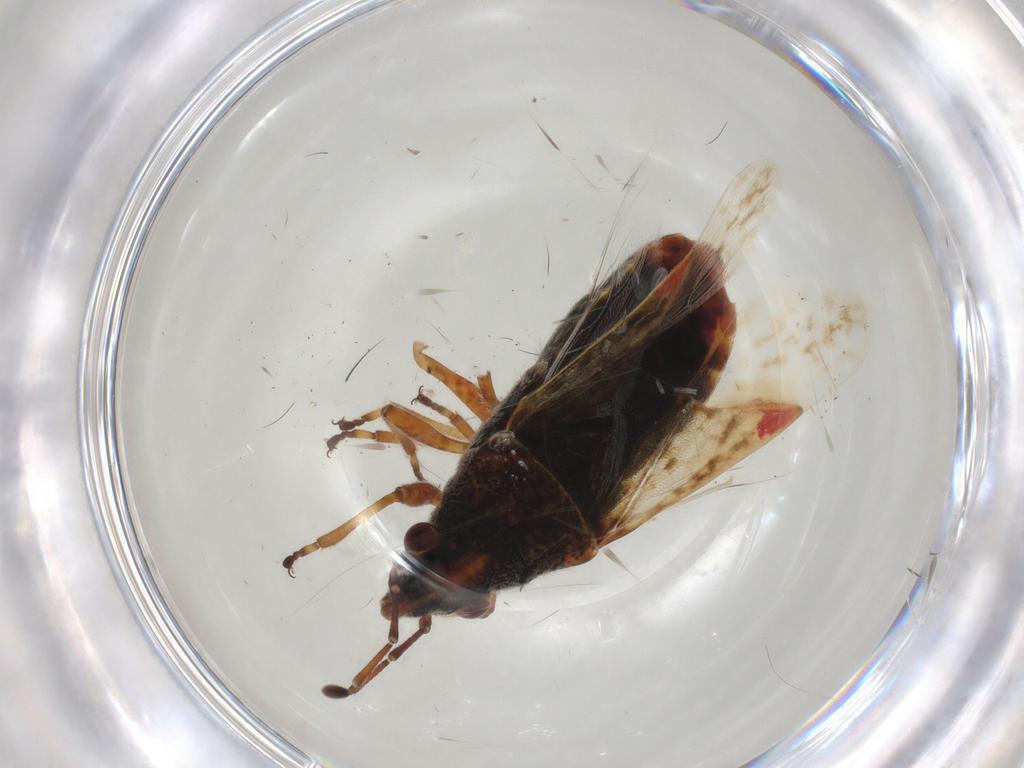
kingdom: Animalia
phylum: Arthropoda
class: Insecta
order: Hemiptera
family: Lygaeidae
